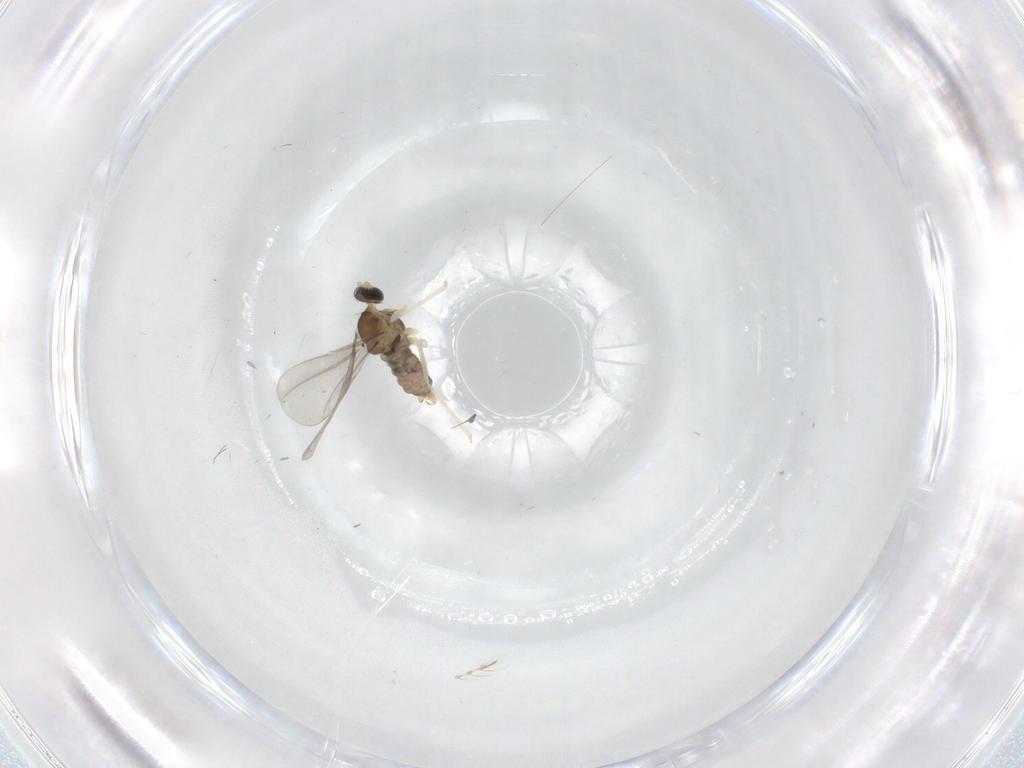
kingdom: Animalia
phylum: Arthropoda
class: Insecta
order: Diptera
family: Cecidomyiidae
